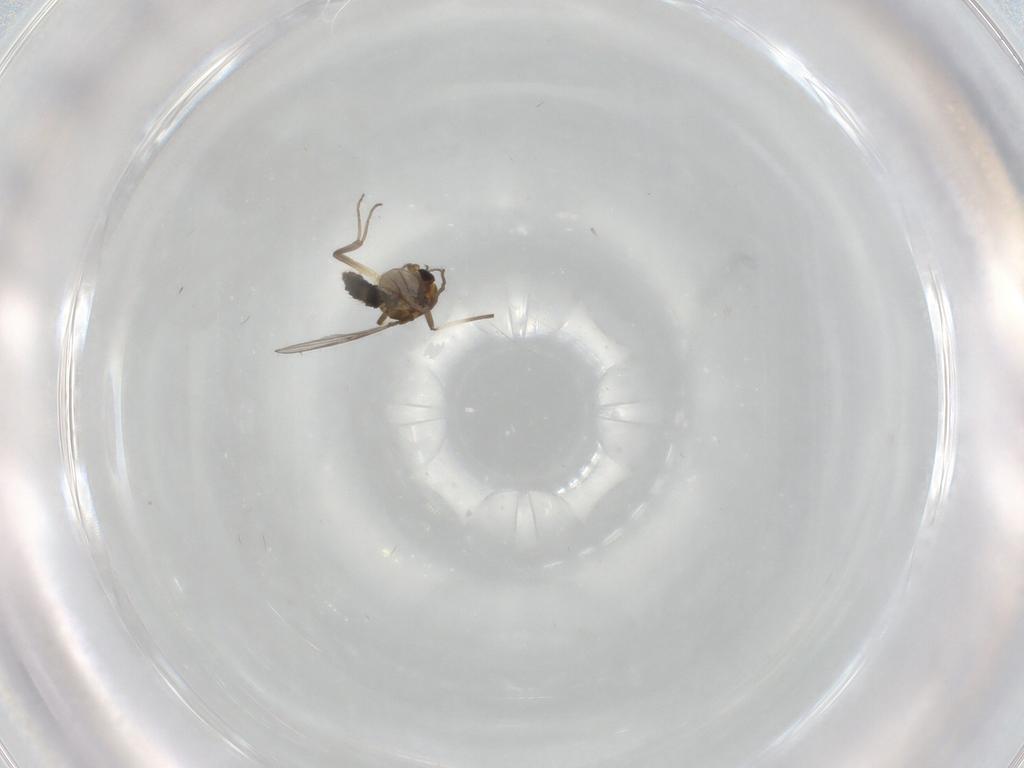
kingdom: Animalia
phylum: Arthropoda
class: Insecta
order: Diptera
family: Chironomidae
